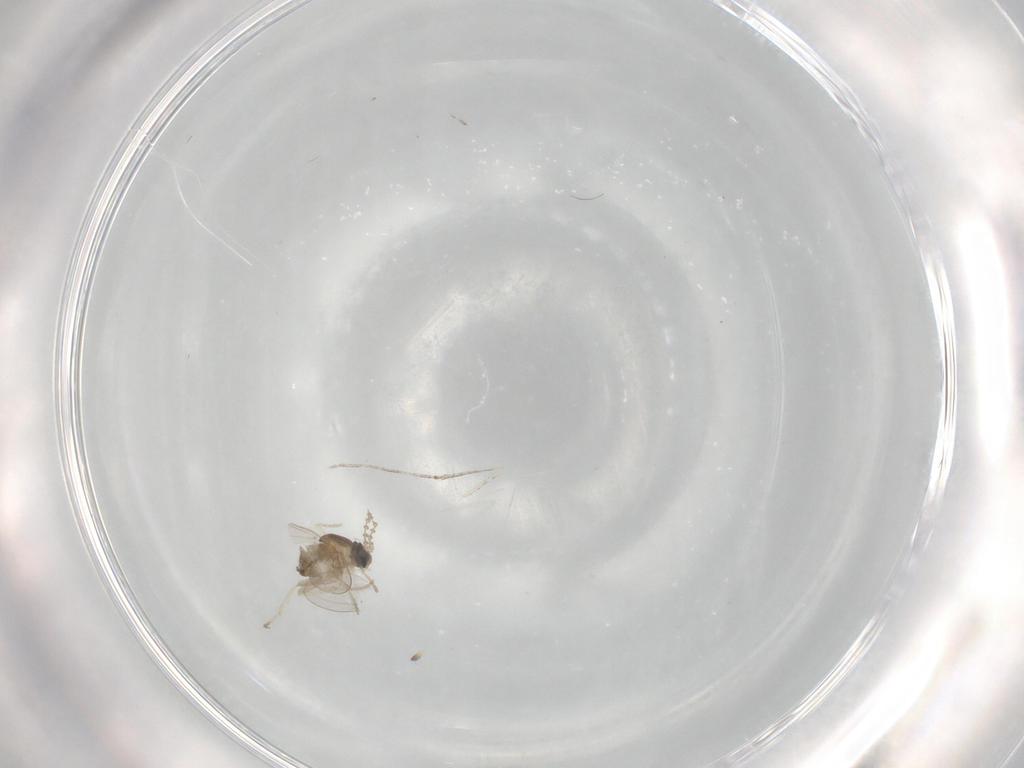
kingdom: Animalia
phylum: Arthropoda
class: Insecta
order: Diptera
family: Cecidomyiidae
